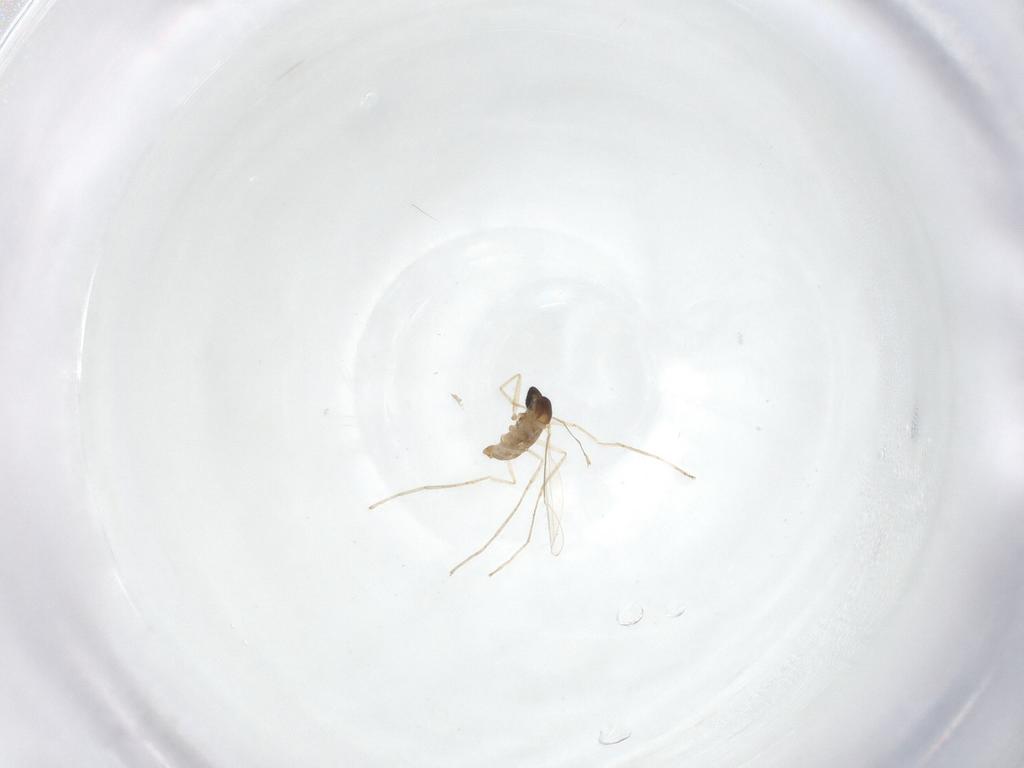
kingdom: Animalia
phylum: Arthropoda
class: Insecta
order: Diptera
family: Cecidomyiidae
